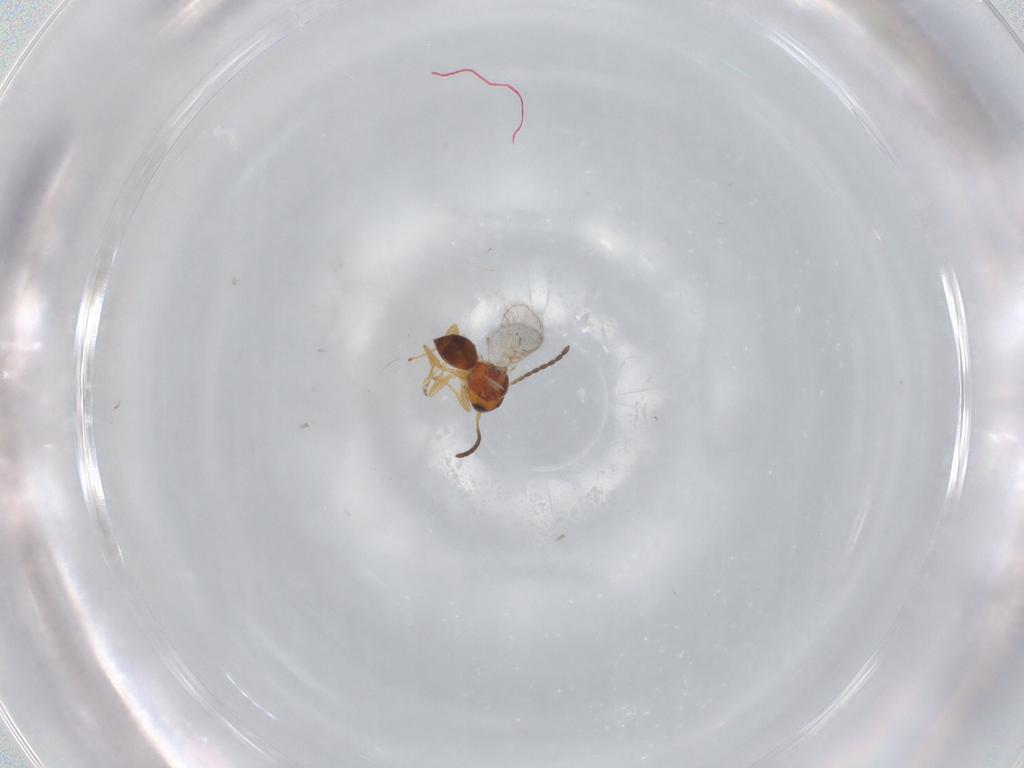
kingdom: Animalia
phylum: Arthropoda
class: Insecta
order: Hymenoptera
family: Figitidae
